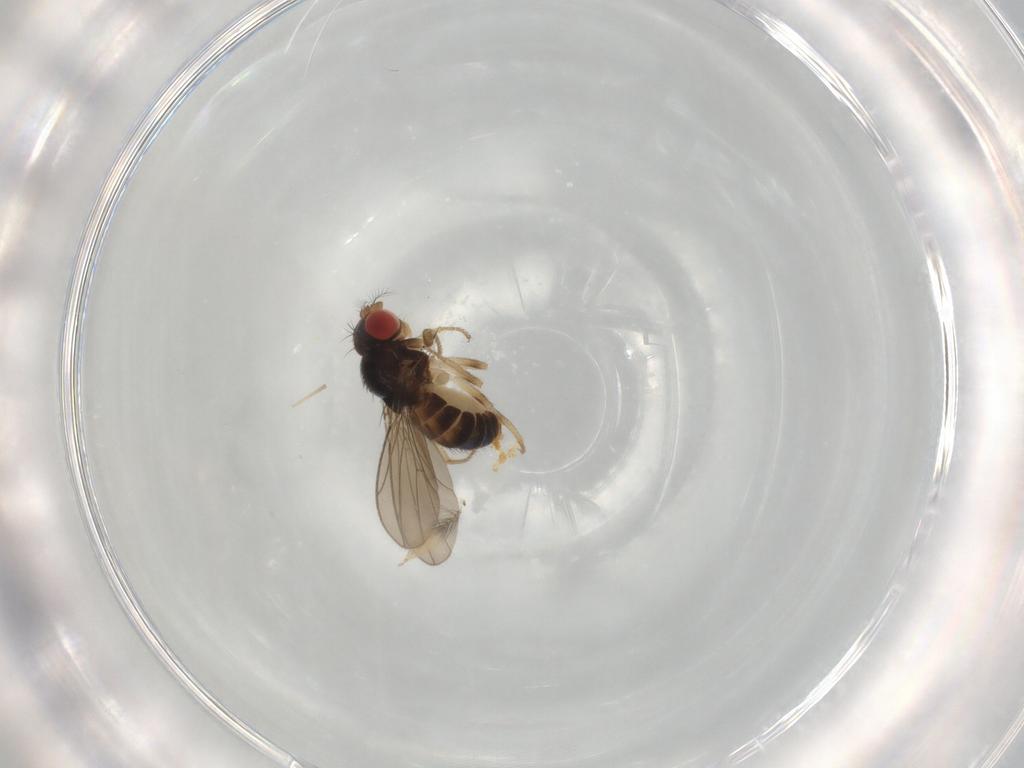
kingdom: Animalia
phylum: Arthropoda
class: Insecta
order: Diptera
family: Drosophilidae
